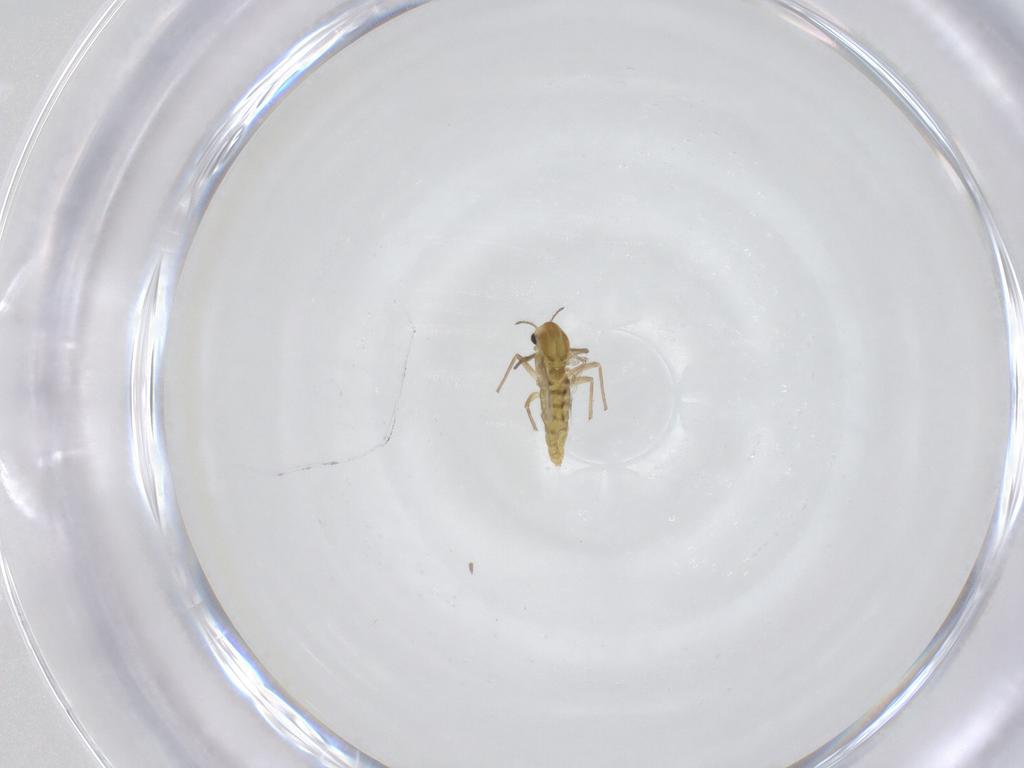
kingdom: Animalia
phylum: Arthropoda
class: Insecta
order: Diptera
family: Chironomidae
